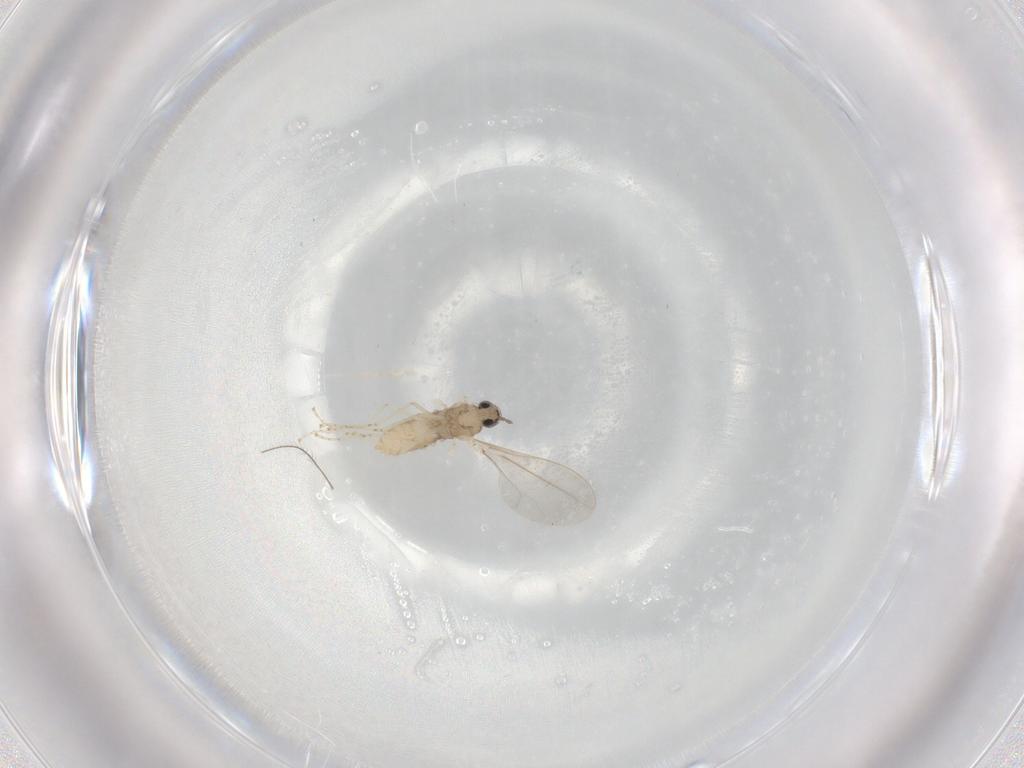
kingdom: Animalia
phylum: Arthropoda
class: Insecta
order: Diptera
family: Cecidomyiidae
